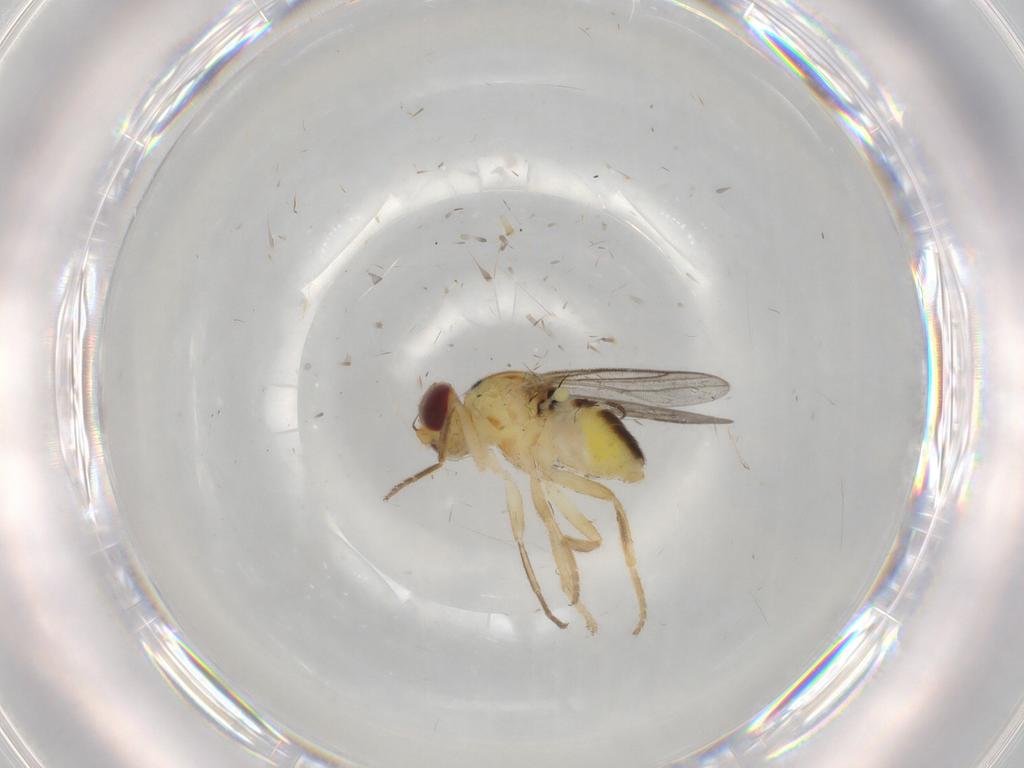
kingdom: Animalia
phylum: Arthropoda
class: Insecta
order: Diptera
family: Chloropidae
